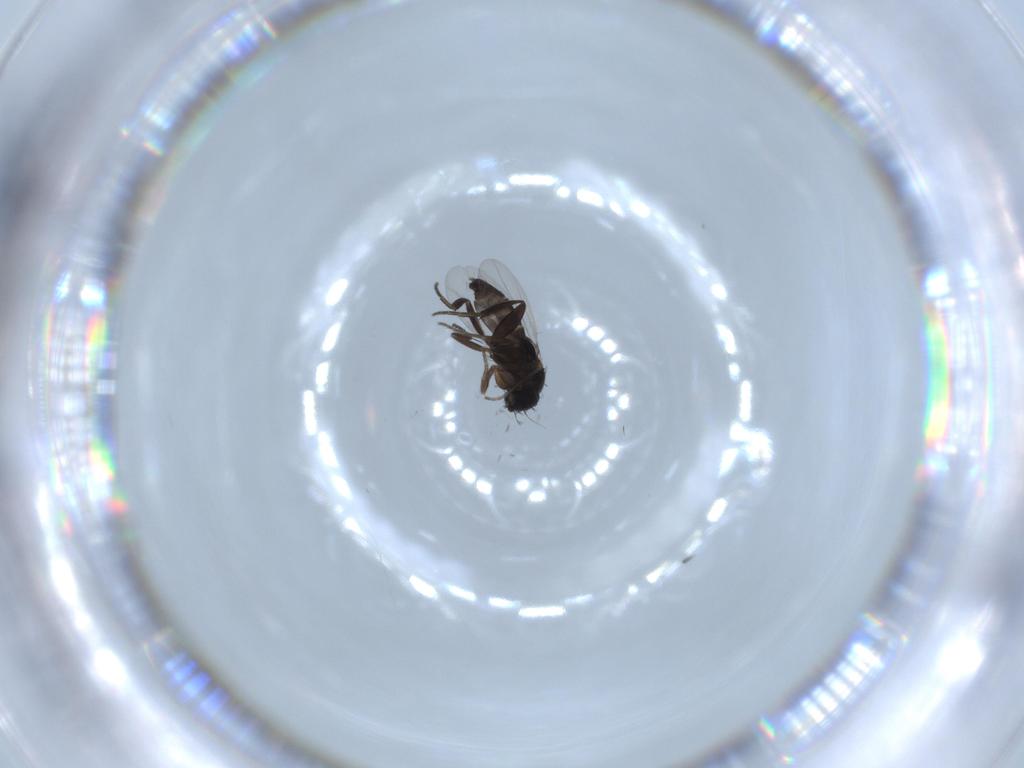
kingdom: Animalia
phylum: Arthropoda
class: Insecta
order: Diptera
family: Phoridae
